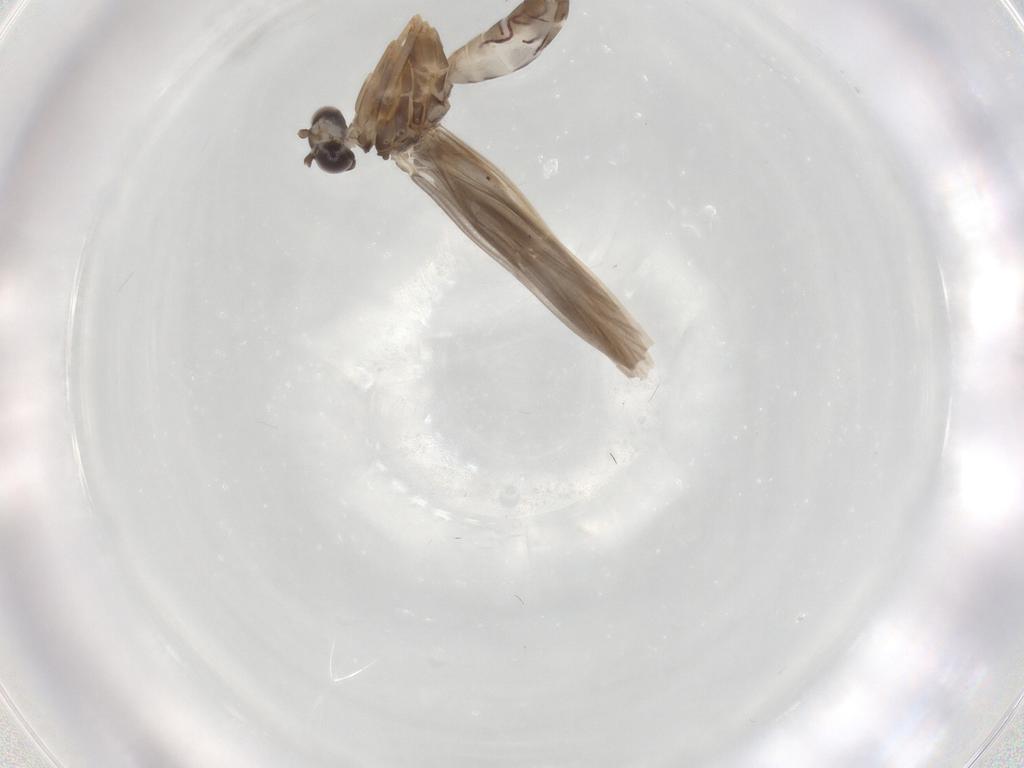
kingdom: Animalia
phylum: Arthropoda
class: Insecta
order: Trichoptera
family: Hydroptilidae
